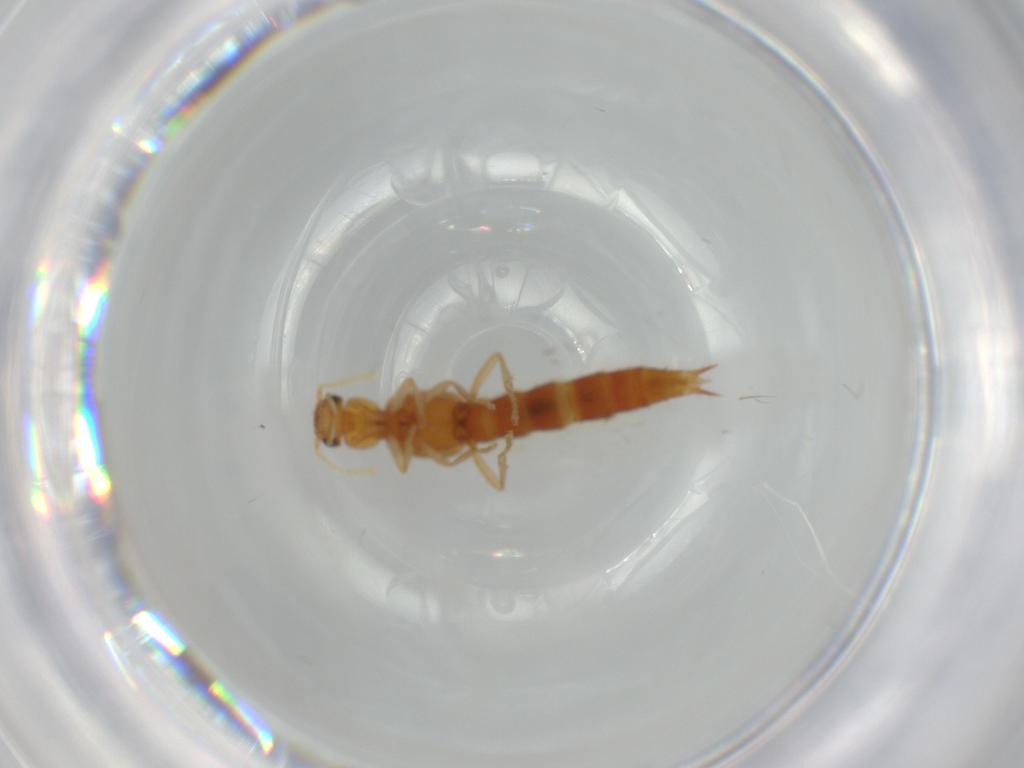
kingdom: Animalia
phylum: Arthropoda
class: Insecta
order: Coleoptera
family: Staphylinidae
